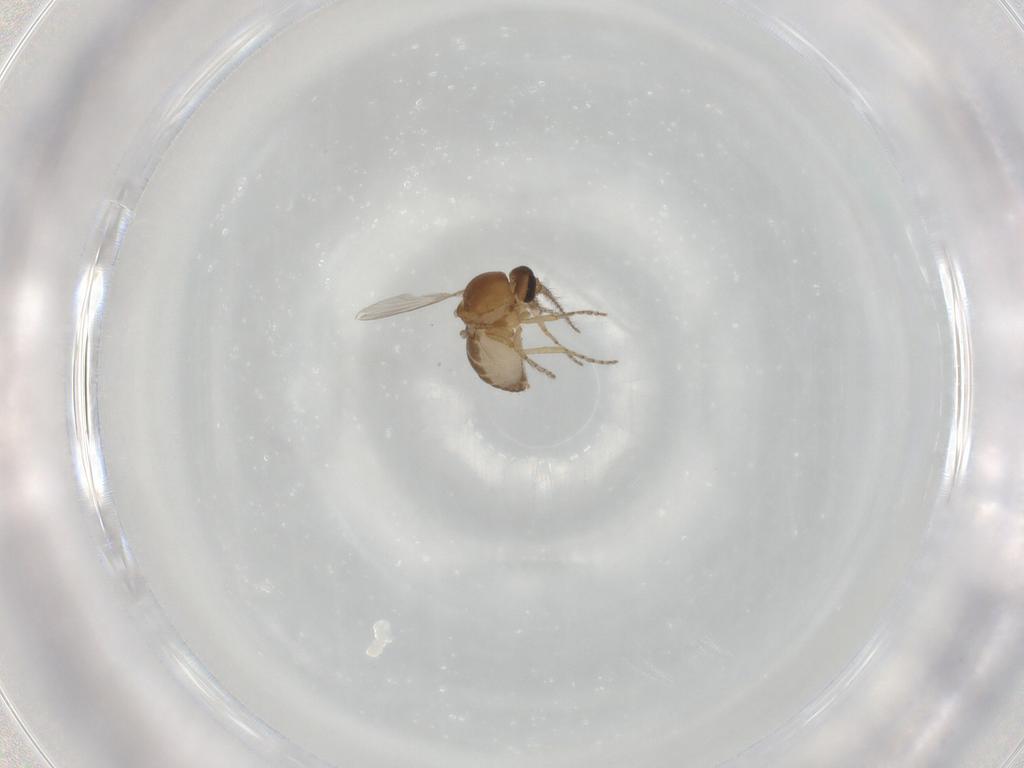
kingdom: Animalia
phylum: Arthropoda
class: Insecta
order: Diptera
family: Ceratopogonidae
